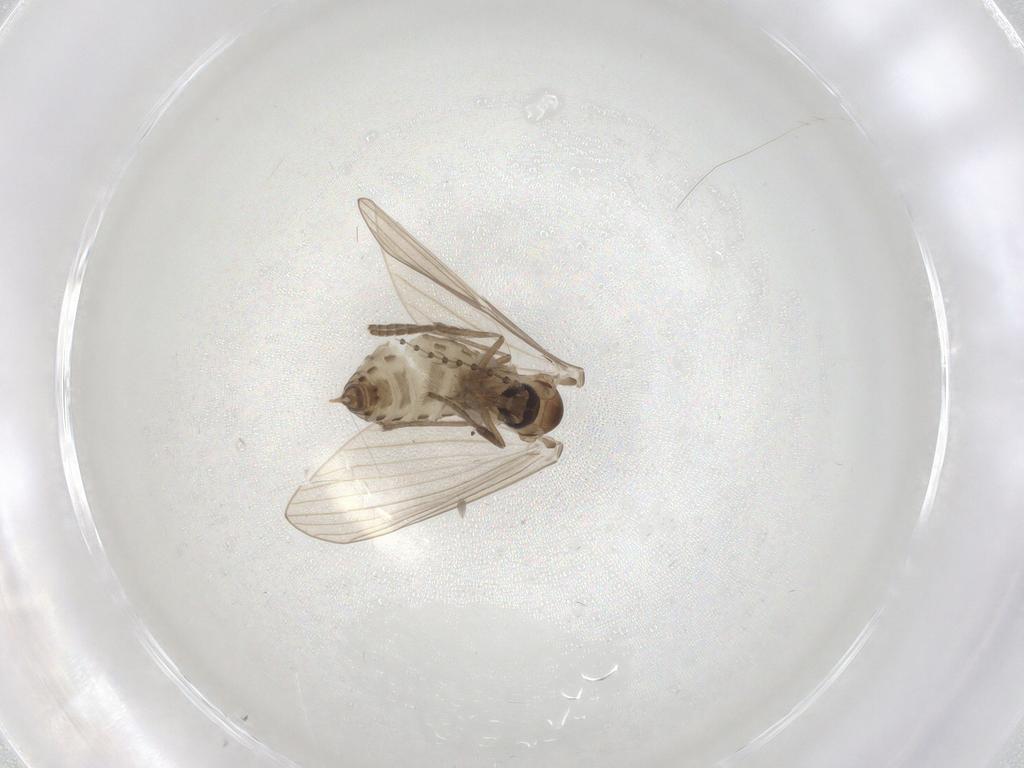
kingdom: Animalia
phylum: Arthropoda
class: Insecta
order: Diptera
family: Psychodidae
